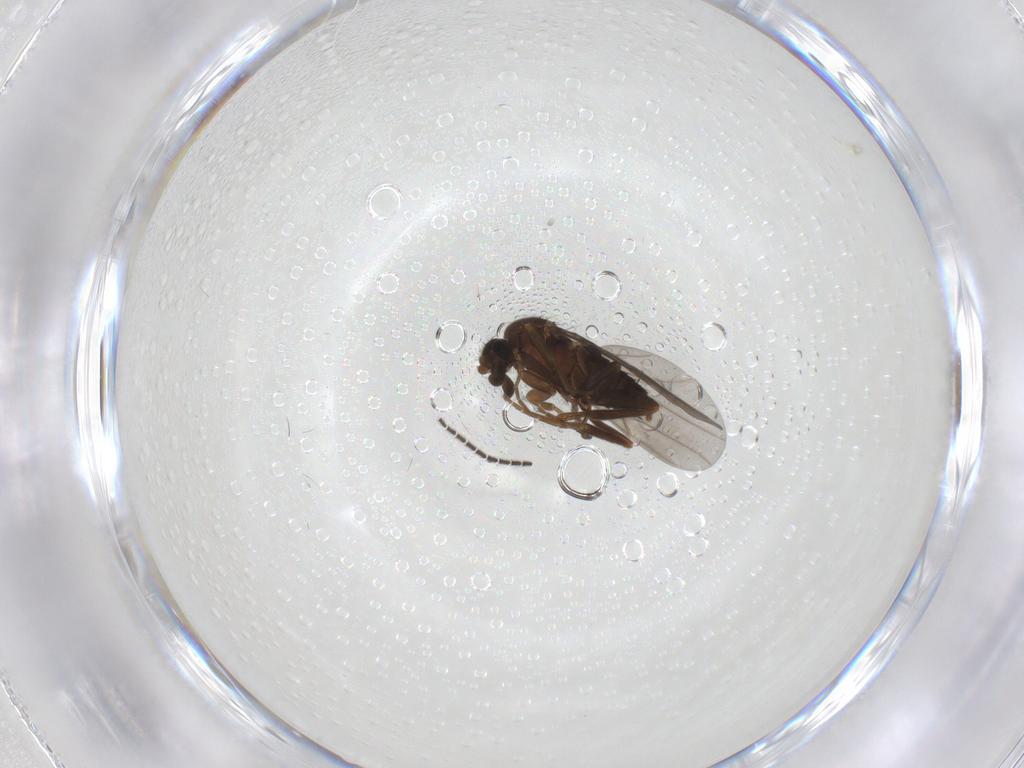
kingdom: Animalia
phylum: Arthropoda
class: Insecta
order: Diptera
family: Phoridae
